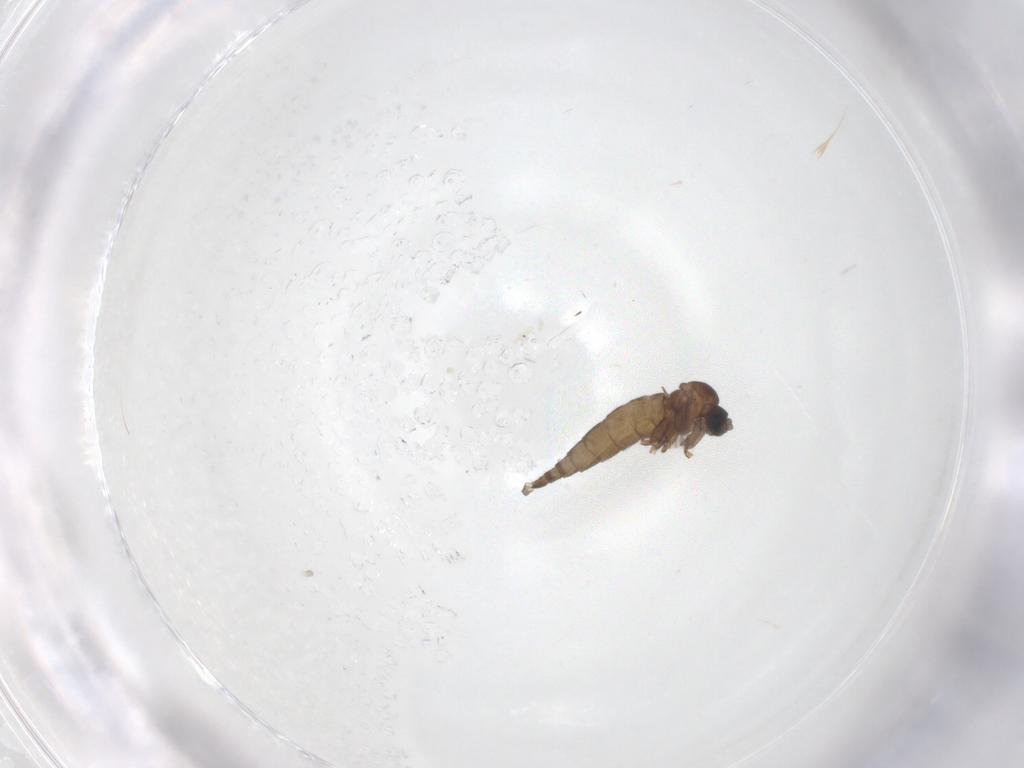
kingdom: Animalia
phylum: Arthropoda
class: Insecta
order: Diptera
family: Sciaridae
